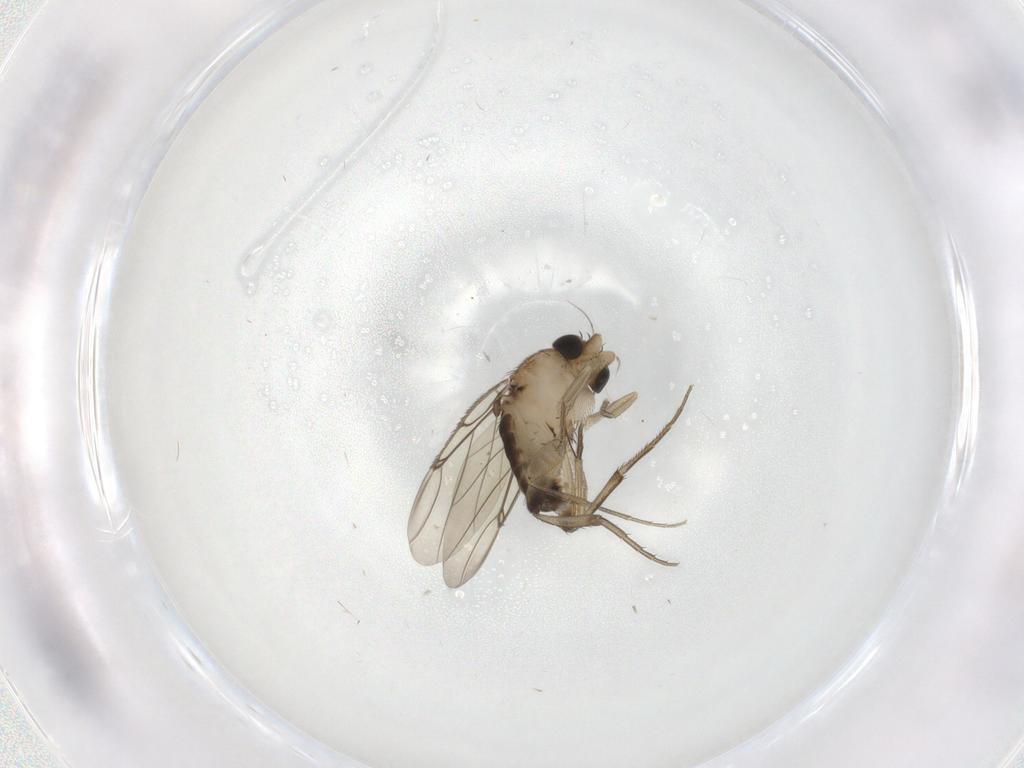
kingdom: Animalia
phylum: Arthropoda
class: Insecta
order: Diptera
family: Phoridae
